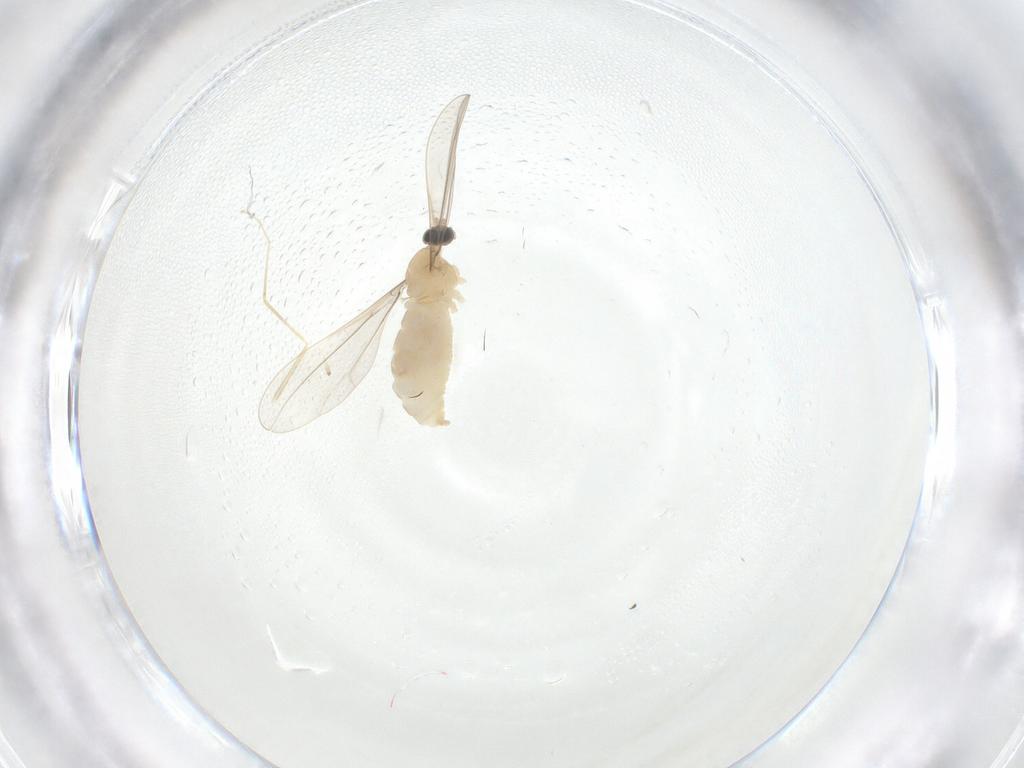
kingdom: Animalia
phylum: Arthropoda
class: Insecta
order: Diptera
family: Cecidomyiidae
